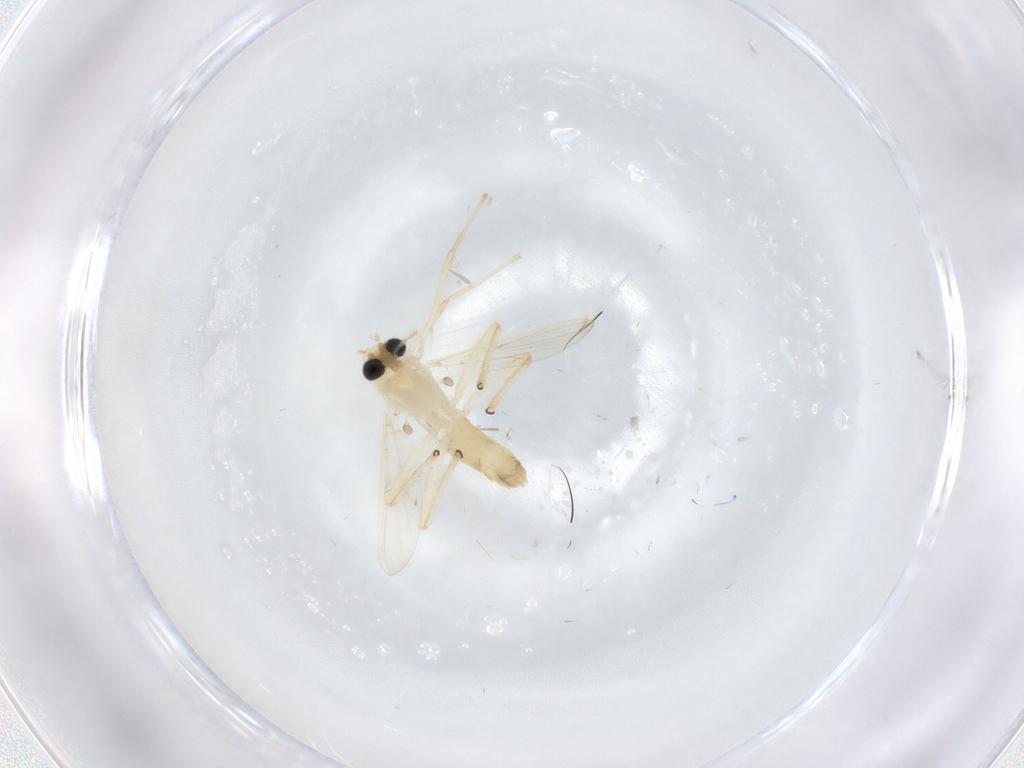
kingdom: Animalia
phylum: Arthropoda
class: Insecta
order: Diptera
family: Chironomidae
